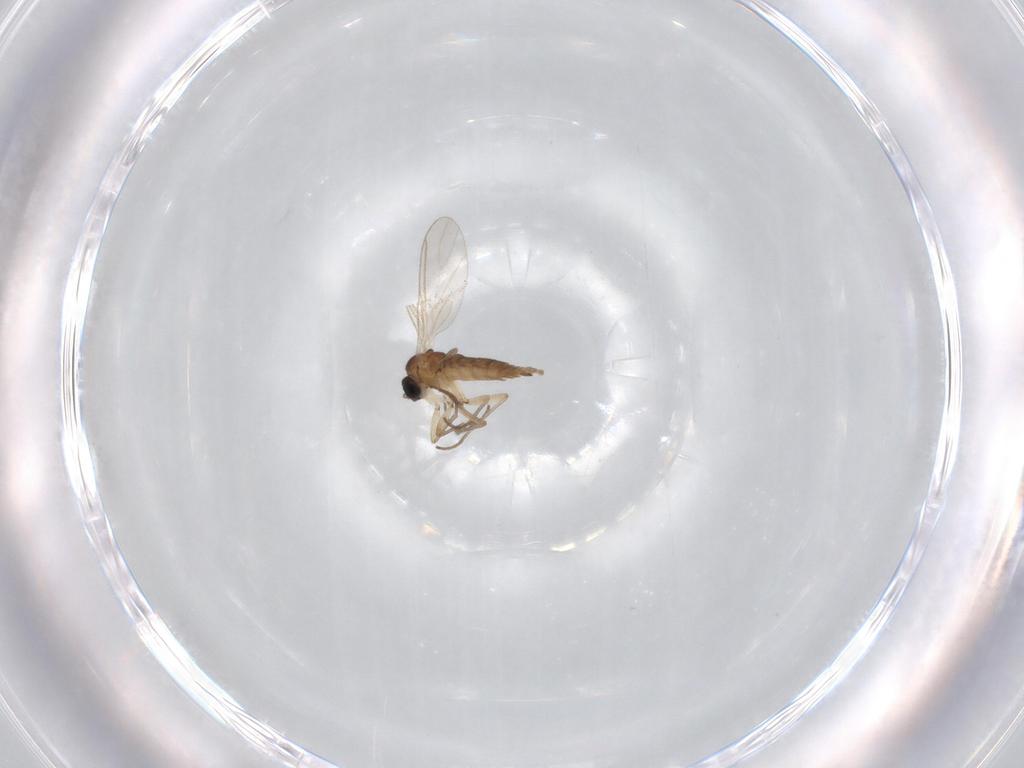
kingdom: Animalia
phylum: Arthropoda
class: Insecta
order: Diptera
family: Sciaridae
